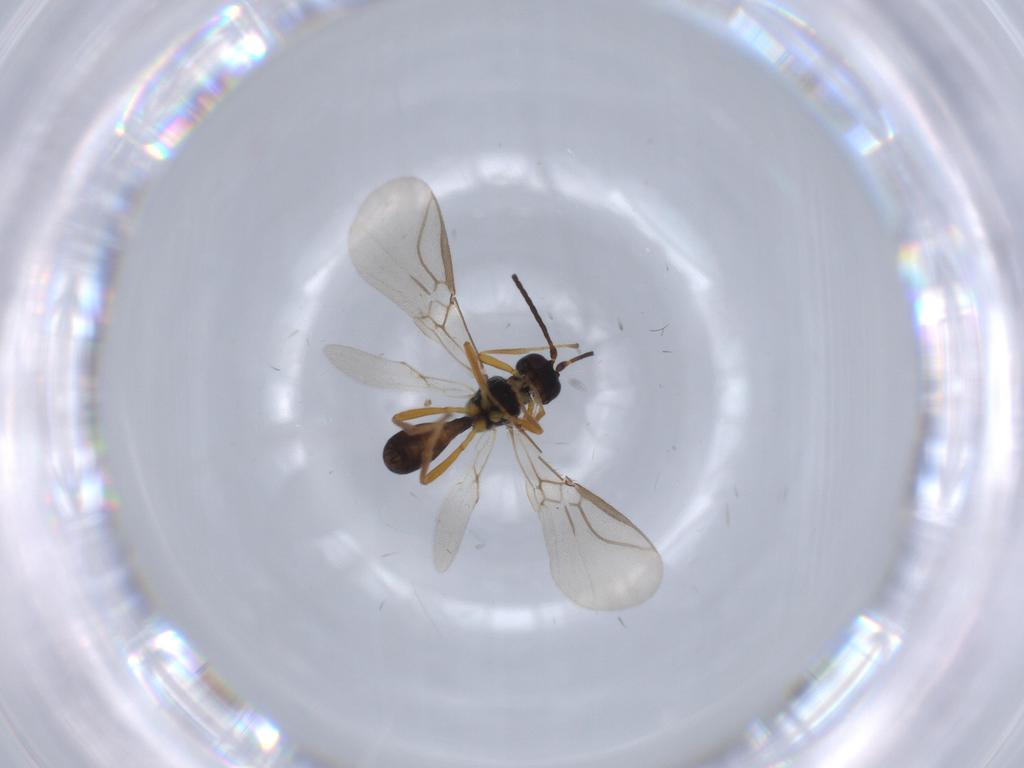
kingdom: Animalia
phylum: Arthropoda
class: Insecta
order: Hymenoptera
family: Braconidae
